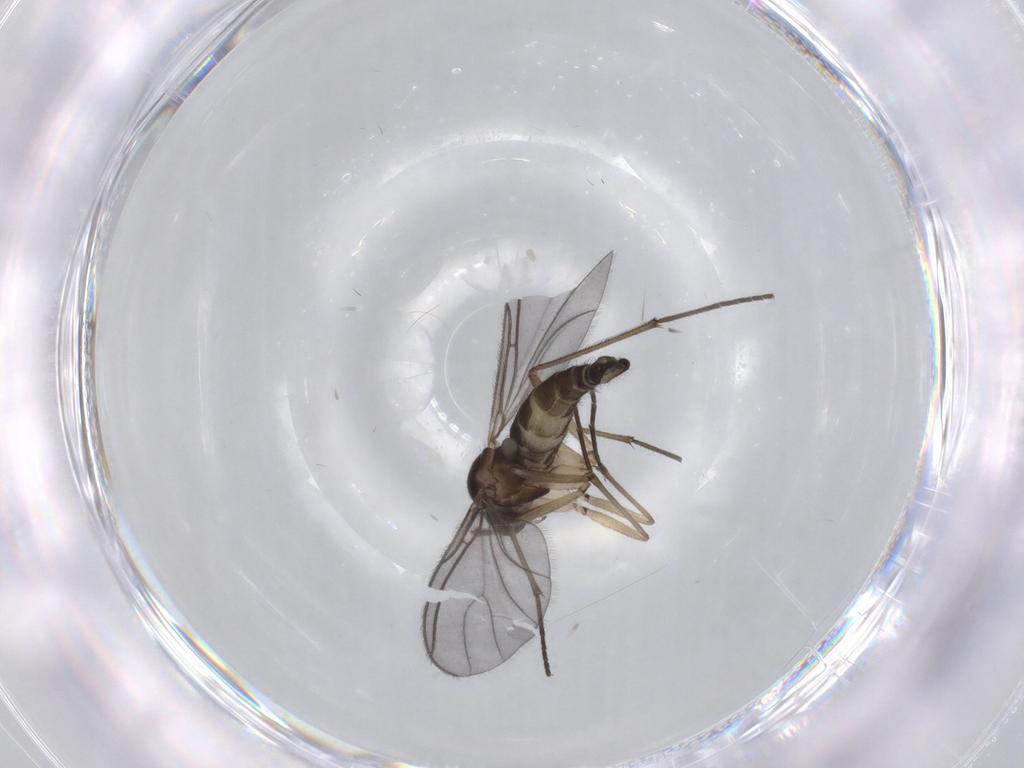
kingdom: Animalia
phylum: Arthropoda
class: Insecta
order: Diptera
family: Sciaridae
